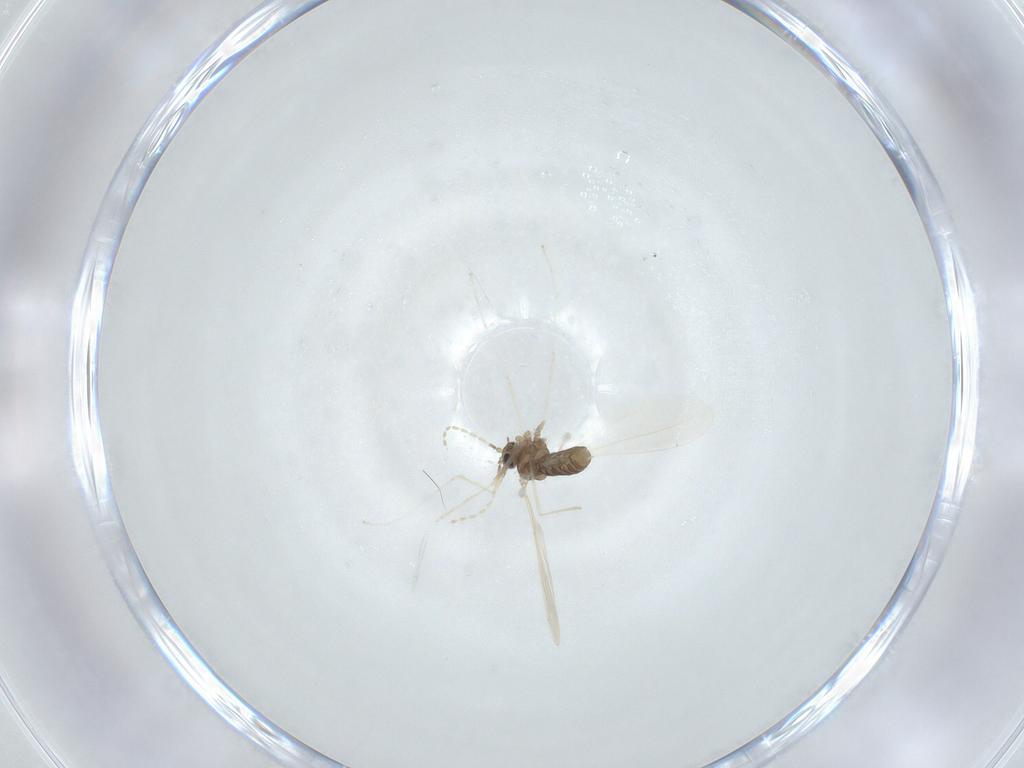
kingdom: Animalia
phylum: Arthropoda
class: Insecta
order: Diptera
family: Cecidomyiidae
